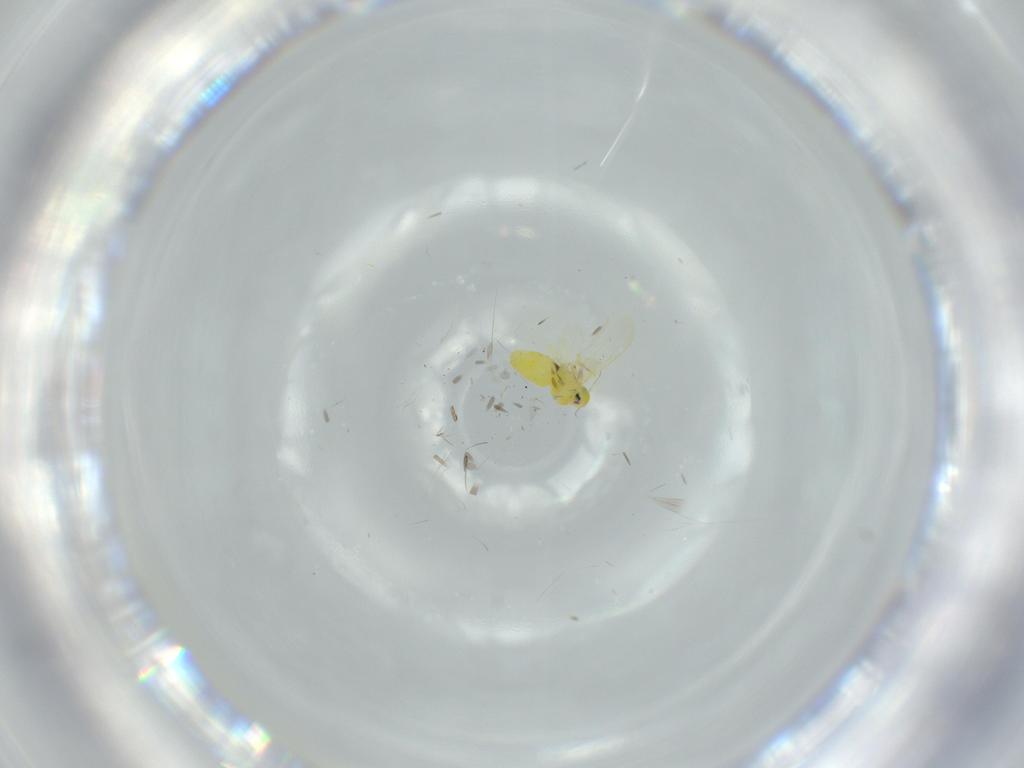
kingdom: Animalia
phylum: Arthropoda
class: Insecta
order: Hemiptera
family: Aleyrodidae
